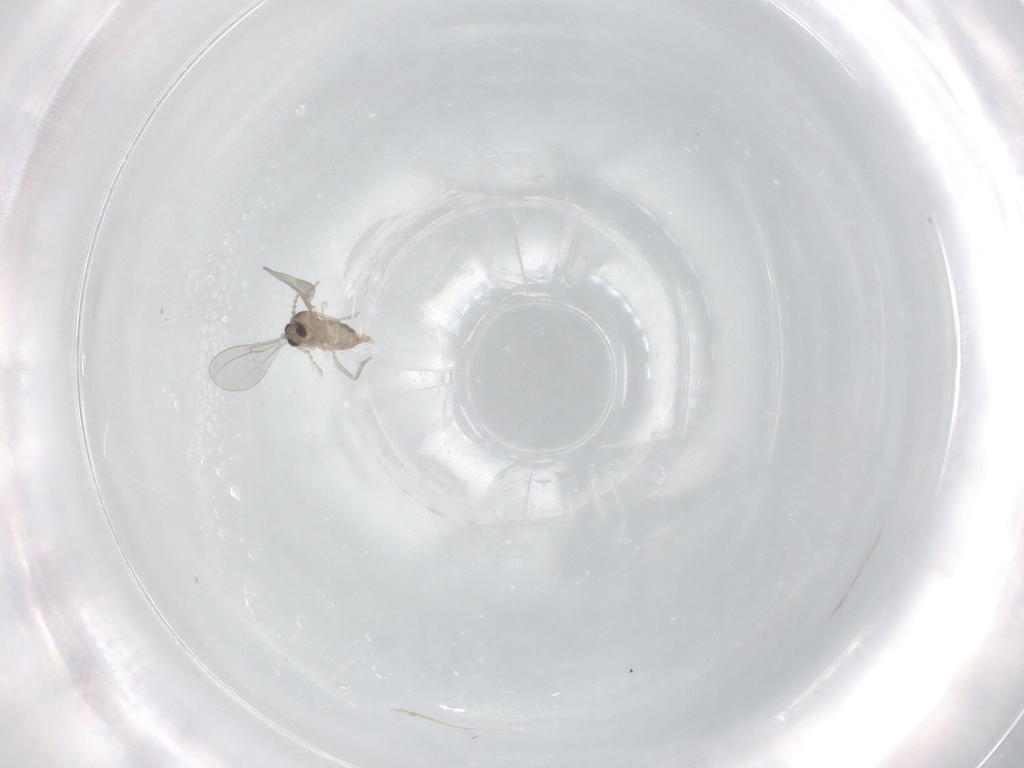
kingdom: Animalia
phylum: Arthropoda
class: Insecta
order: Diptera
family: Cecidomyiidae
